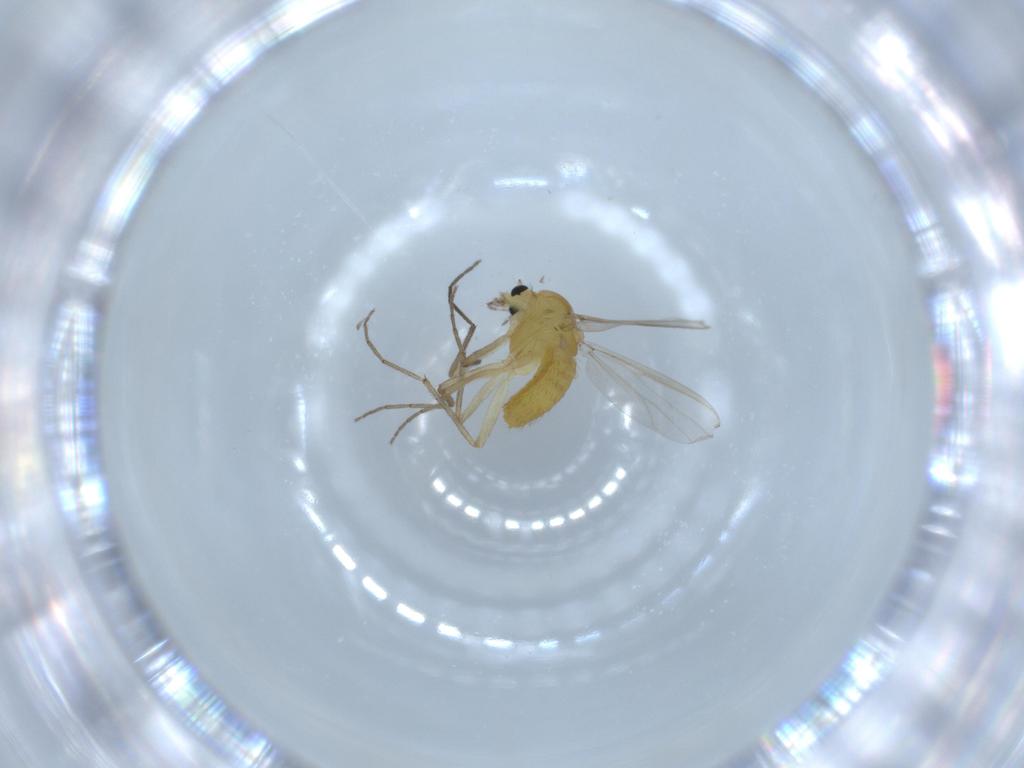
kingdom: Animalia
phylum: Arthropoda
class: Insecta
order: Diptera
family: Chironomidae
